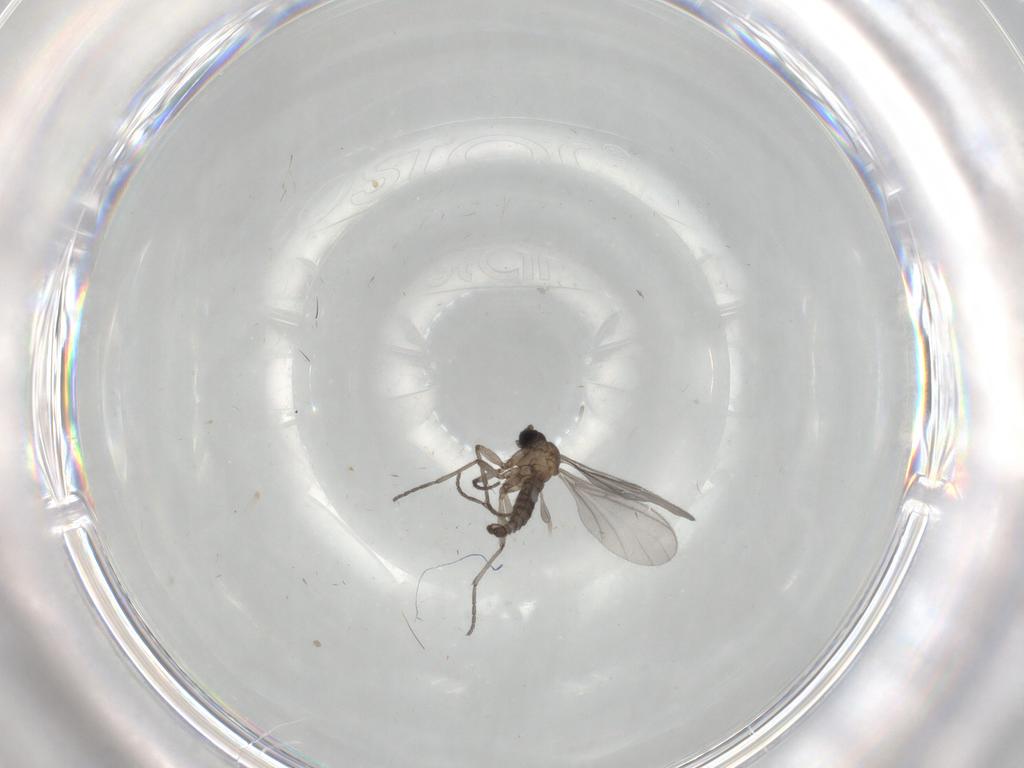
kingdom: Animalia
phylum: Arthropoda
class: Insecta
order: Diptera
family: Sciaridae
